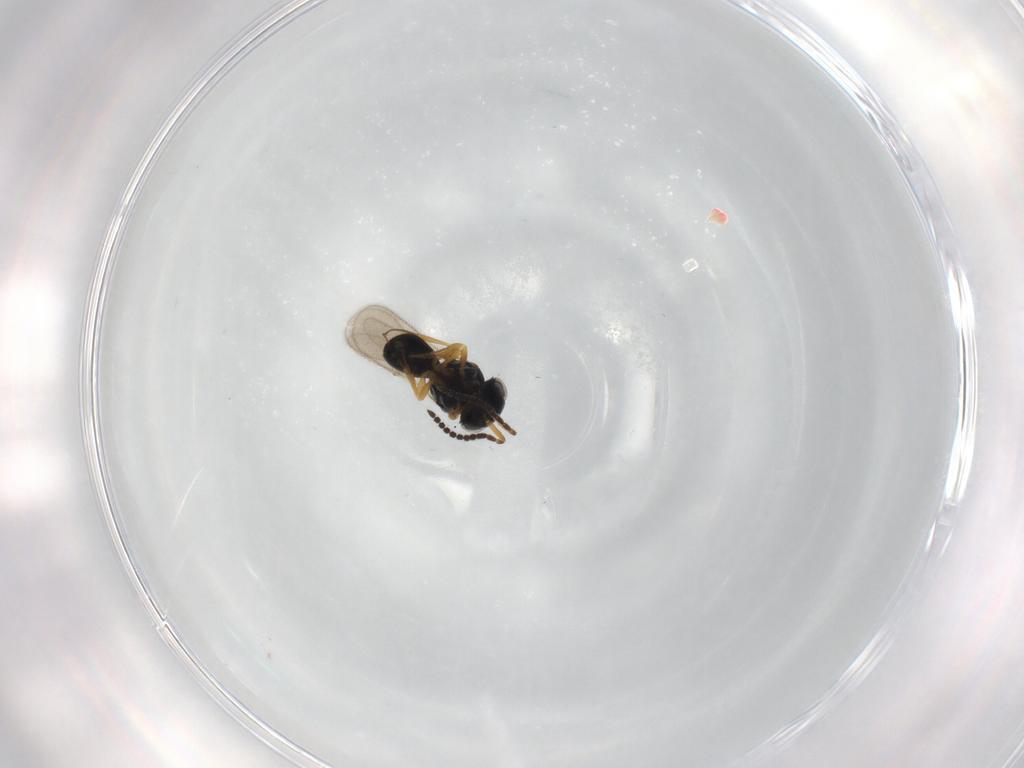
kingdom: Animalia
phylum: Arthropoda
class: Insecta
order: Hymenoptera
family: Scelionidae
